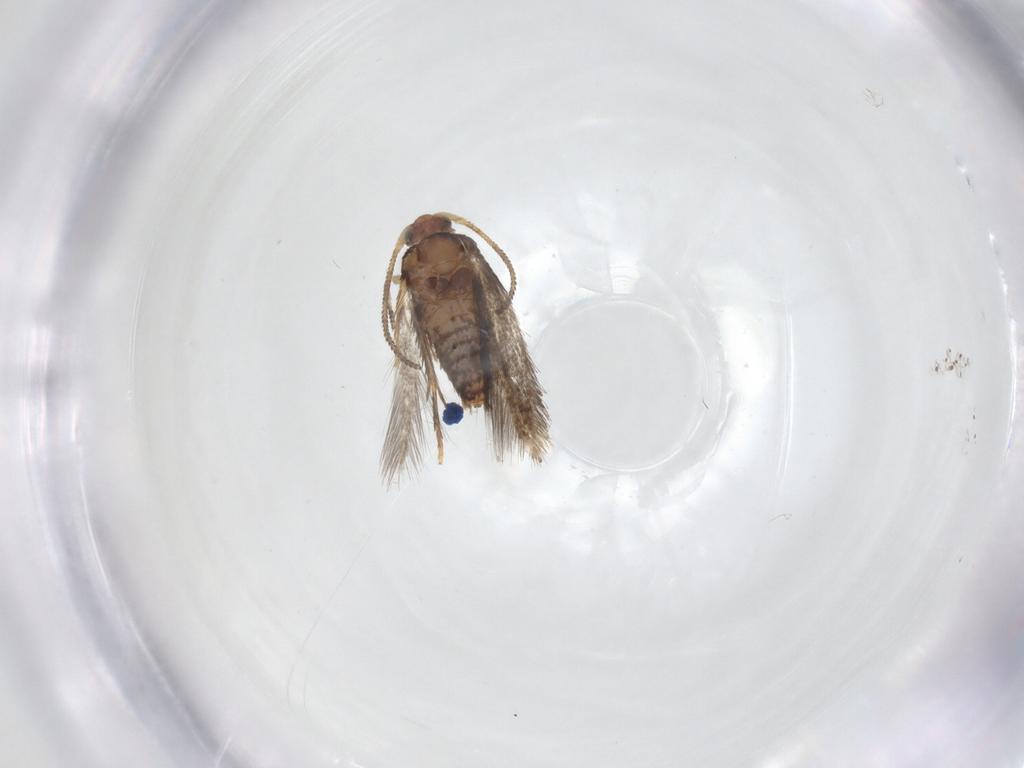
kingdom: Animalia
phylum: Arthropoda
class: Insecta
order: Lepidoptera
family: Nepticulidae
